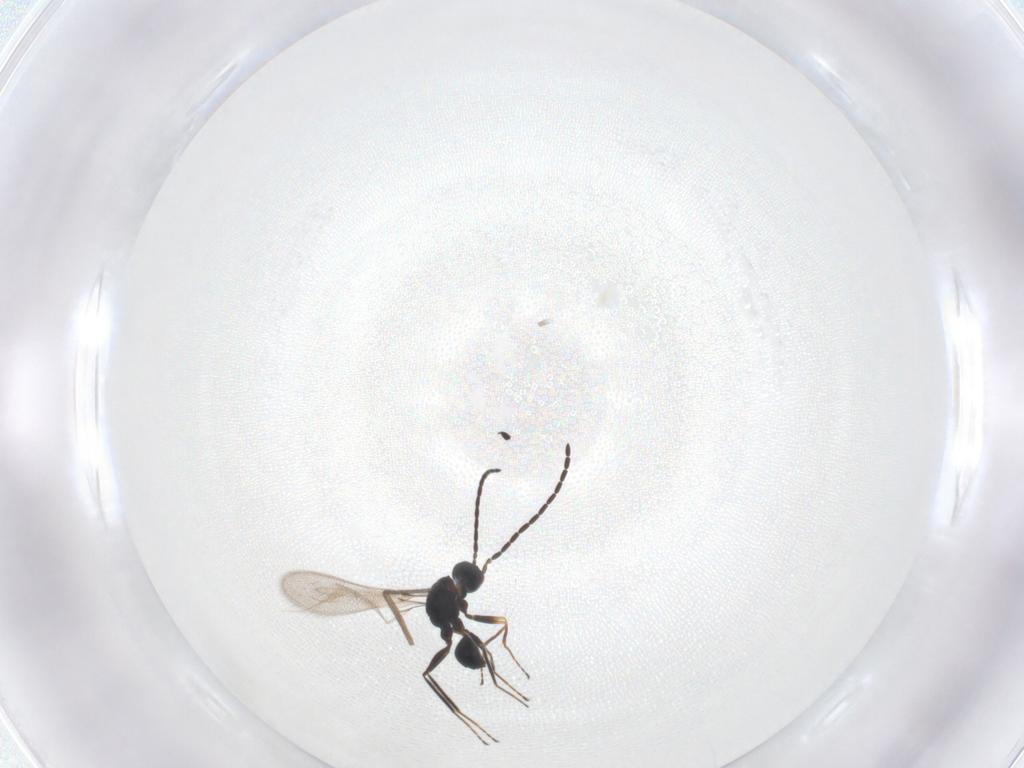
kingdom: Animalia
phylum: Arthropoda
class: Insecta
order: Hymenoptera
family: Mymaridae
